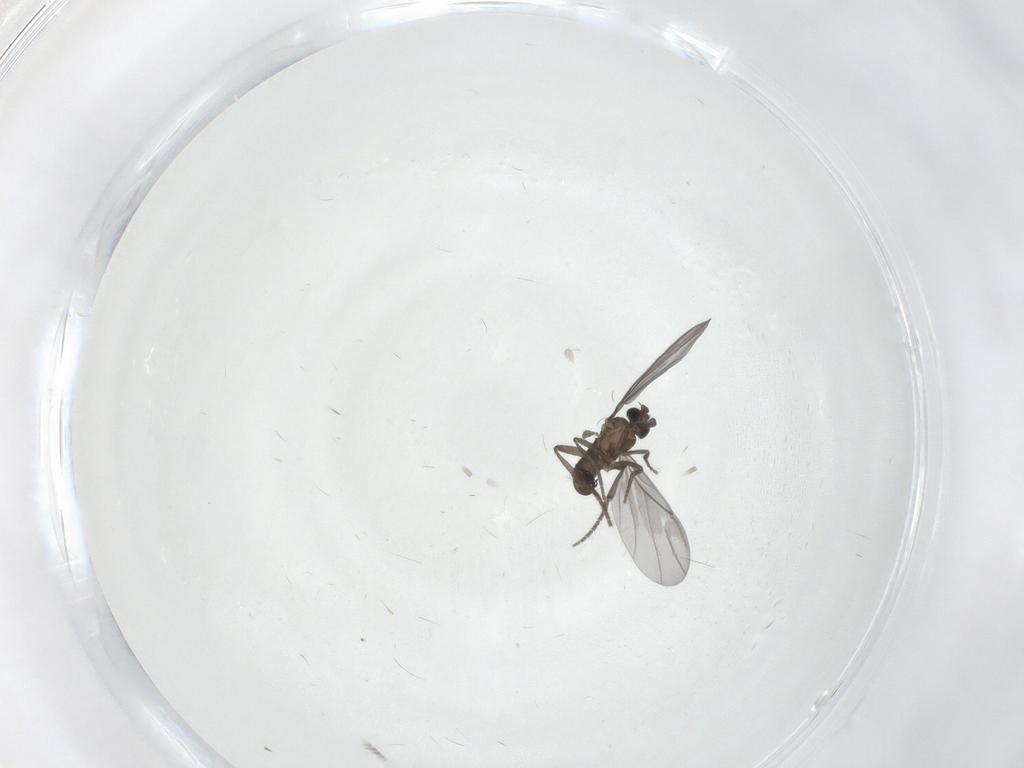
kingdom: Animalia
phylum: Arthropoda
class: Insecta
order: Diptera
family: Phoridae
